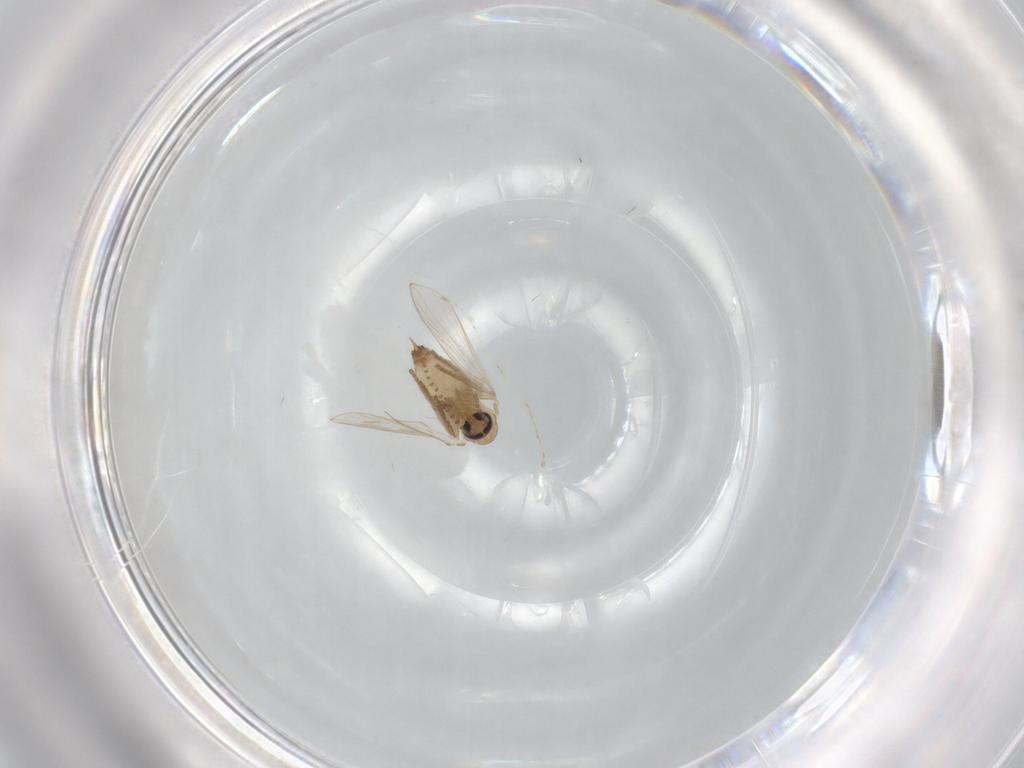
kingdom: Animalia
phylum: Arthropoda
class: Insecta
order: Diptera
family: Psychodidae
